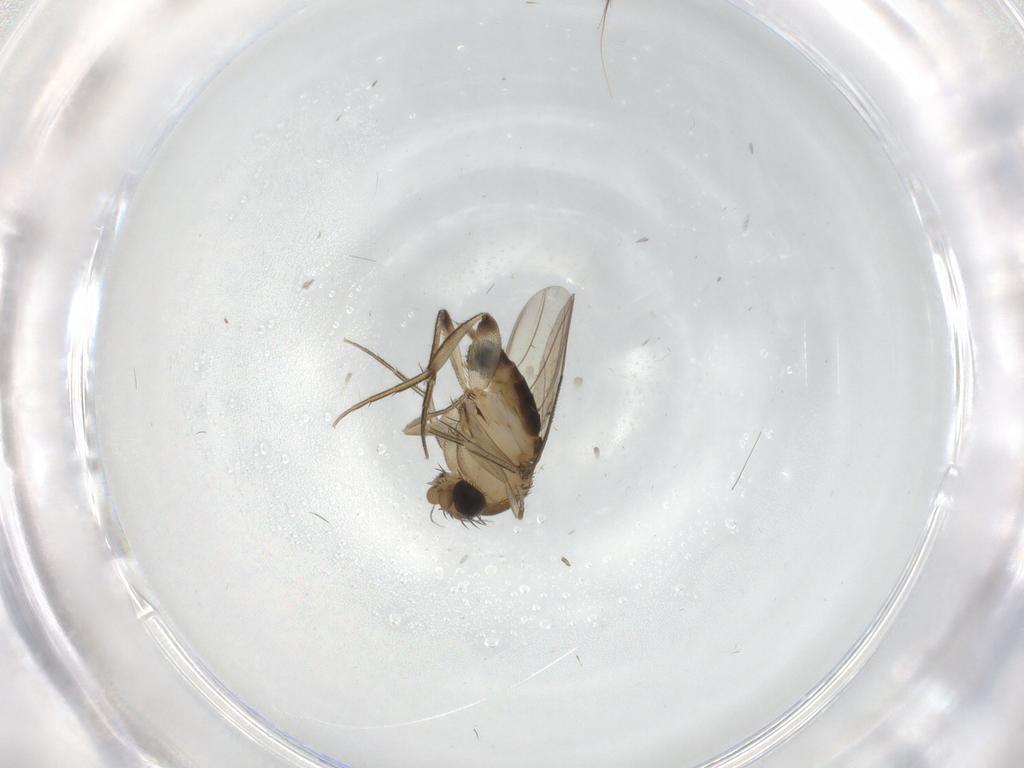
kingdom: Animalia
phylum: Arthropoda
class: Insecta
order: Diptera
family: Phoridae
